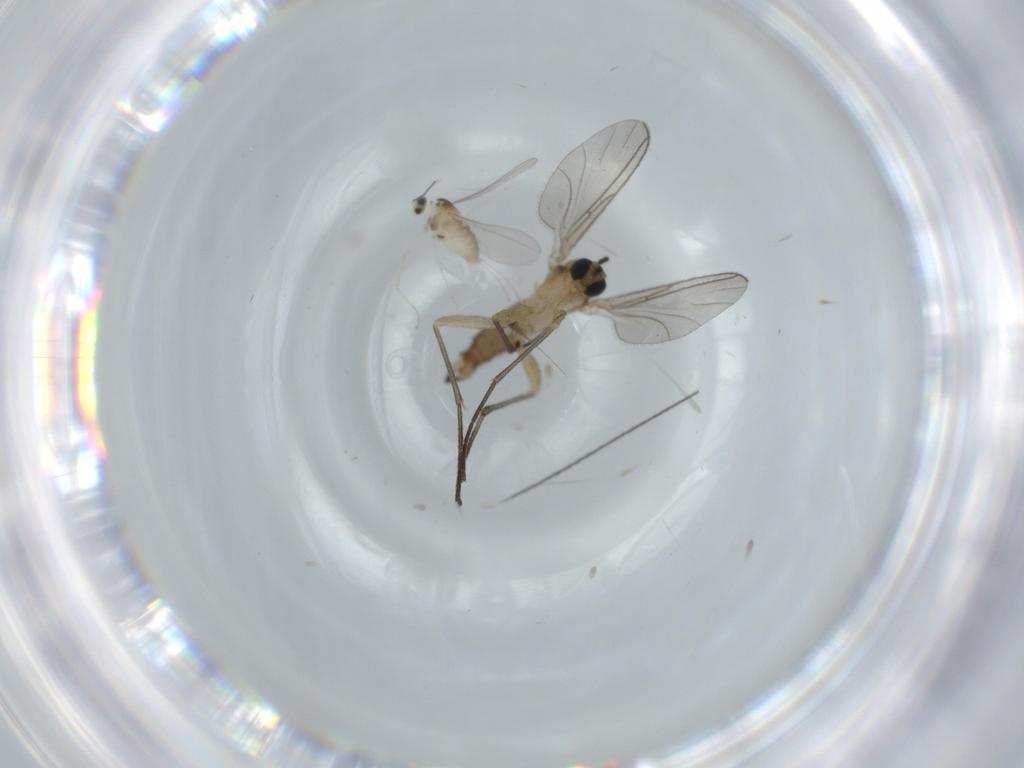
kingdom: Animalia
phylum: Arthropoda
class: Insecta
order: Diptera
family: Sciaridae
